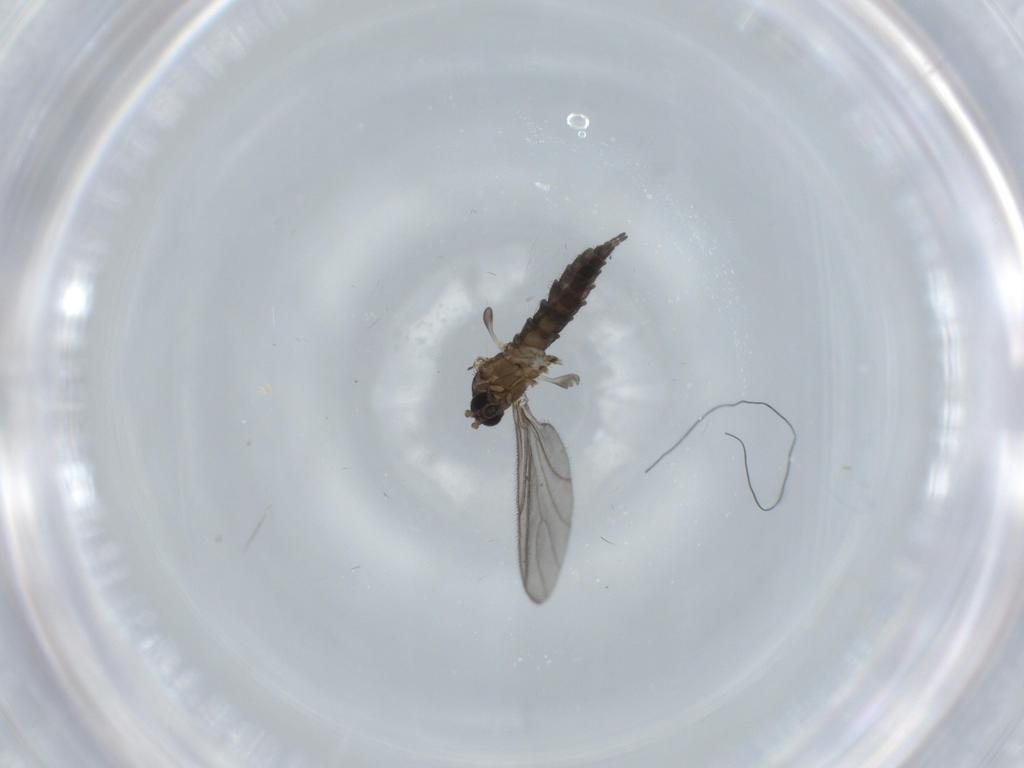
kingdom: Animalia
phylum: Arthropoda
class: Insecta
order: Diptera
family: Sciaridae
